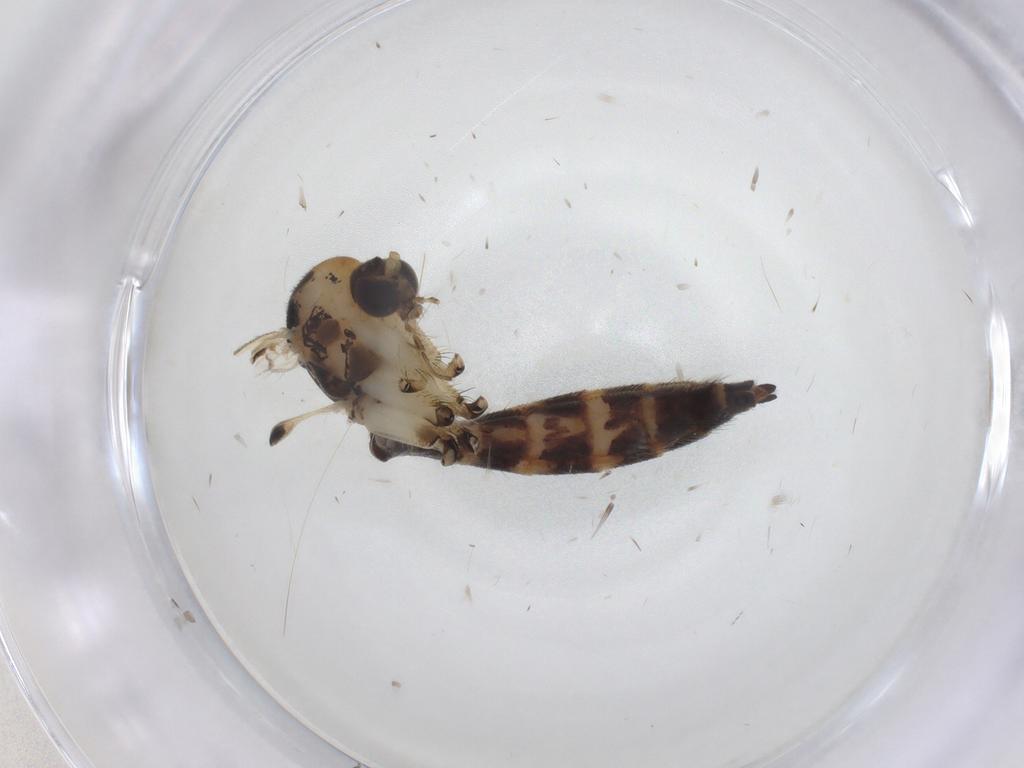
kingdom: Animalia
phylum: Arthropoda
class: Insecta
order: Diptera
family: Mycetophilidae
